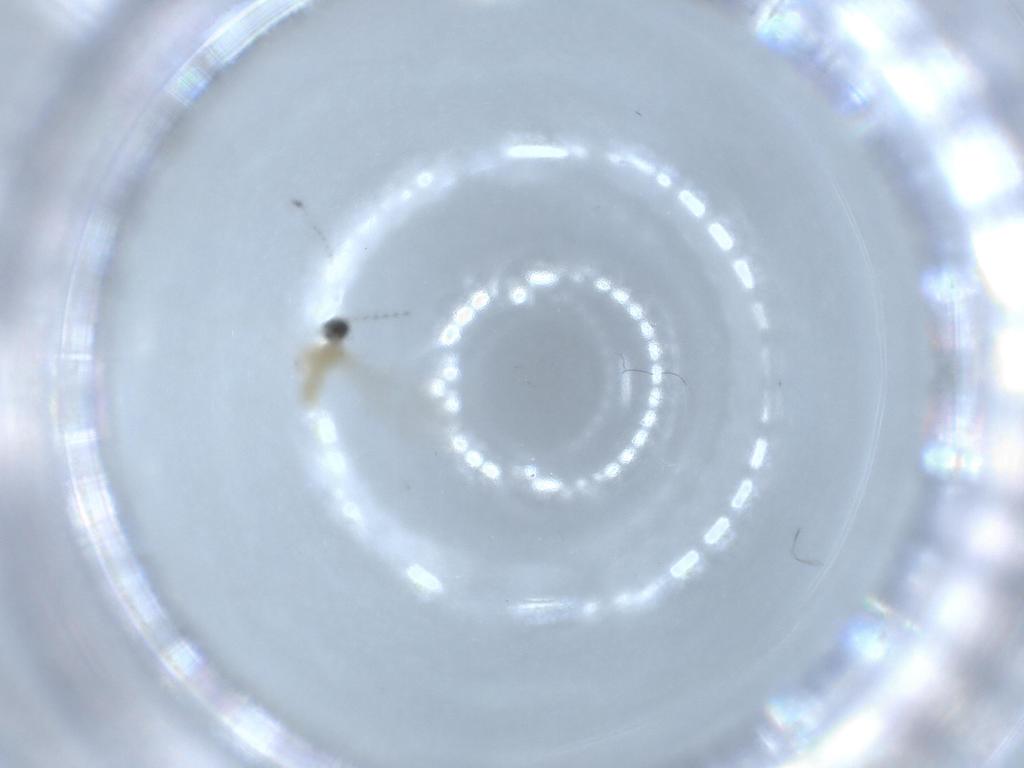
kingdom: Animalia
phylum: Arthropoda
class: Insecta
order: Diptera
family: Cecidomyiidae
